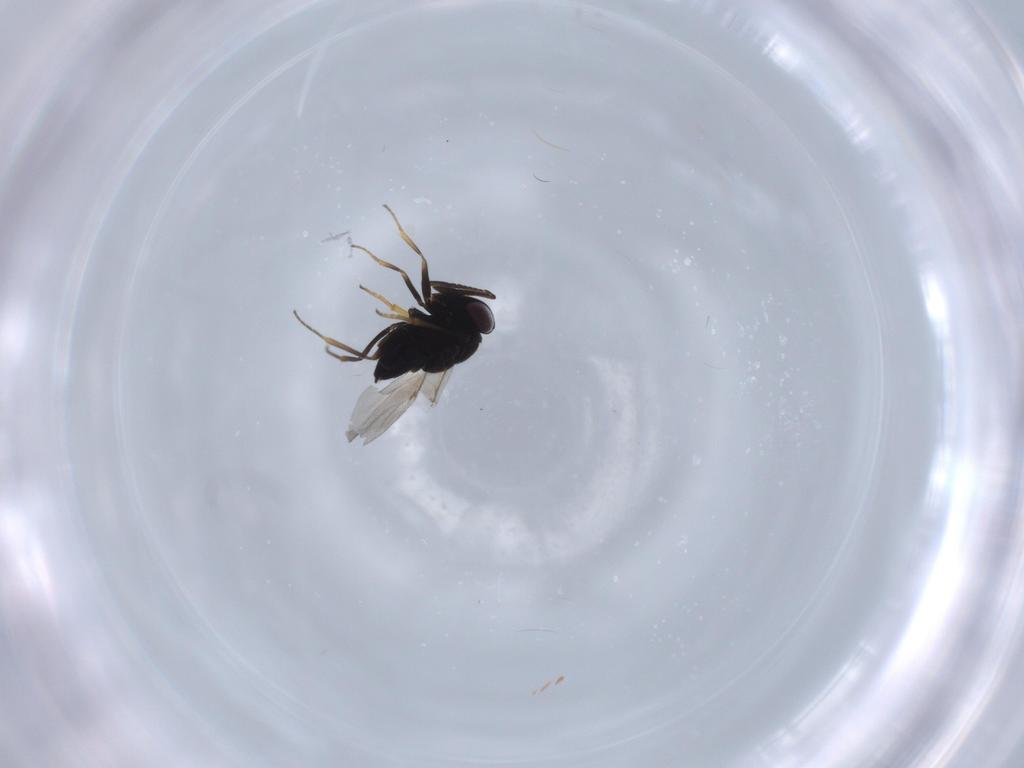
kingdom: Animalia
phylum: Arthropoda
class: Insecta
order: Hymenoptera
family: Encyrtidae
